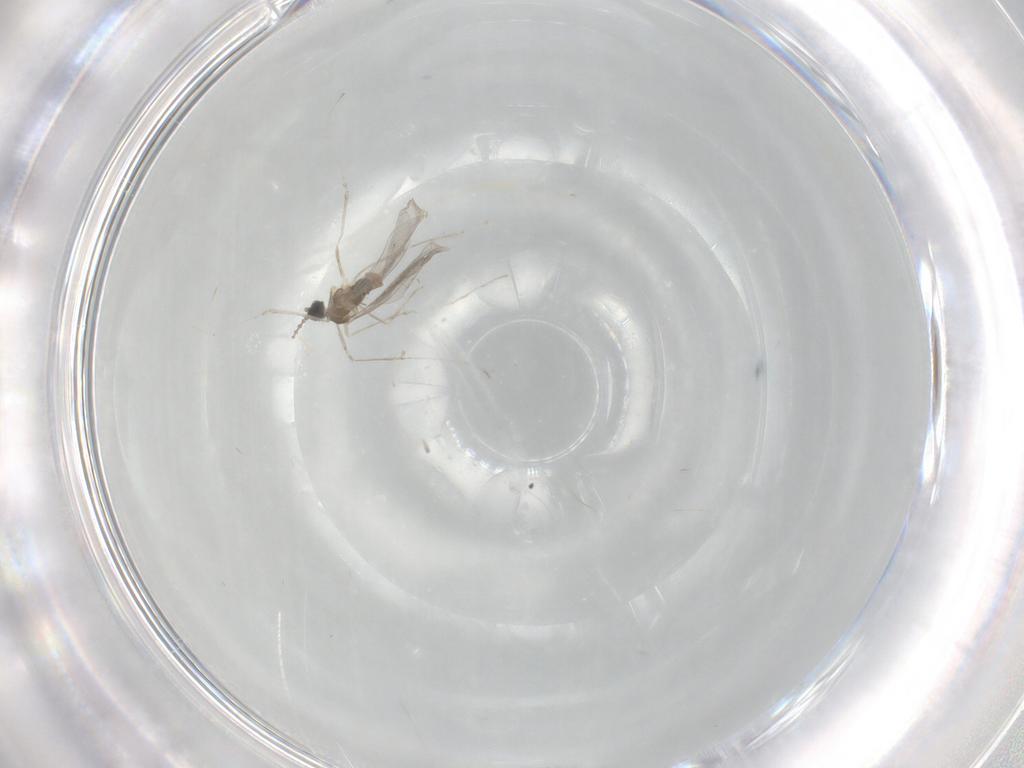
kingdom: Animalia
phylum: Arthropoda
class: Insecta
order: Diptera
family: Cecidomyiidae
